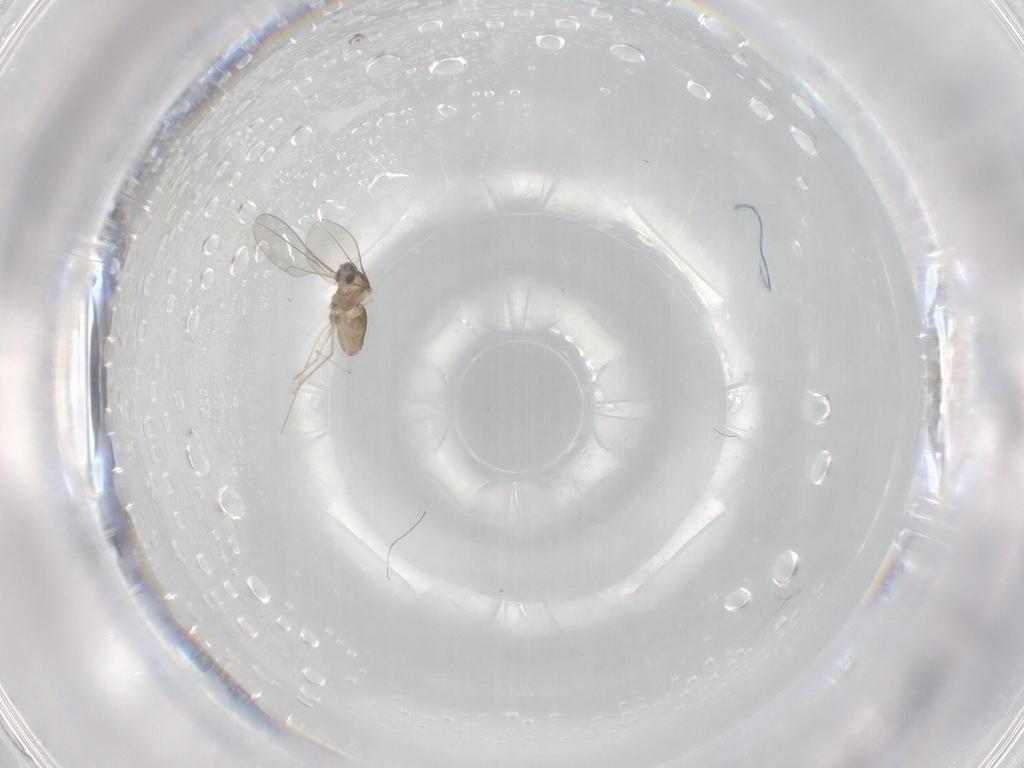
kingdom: Animalia
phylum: Arthropoda
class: Insecta
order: Diptera
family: Cecidomyiidae
